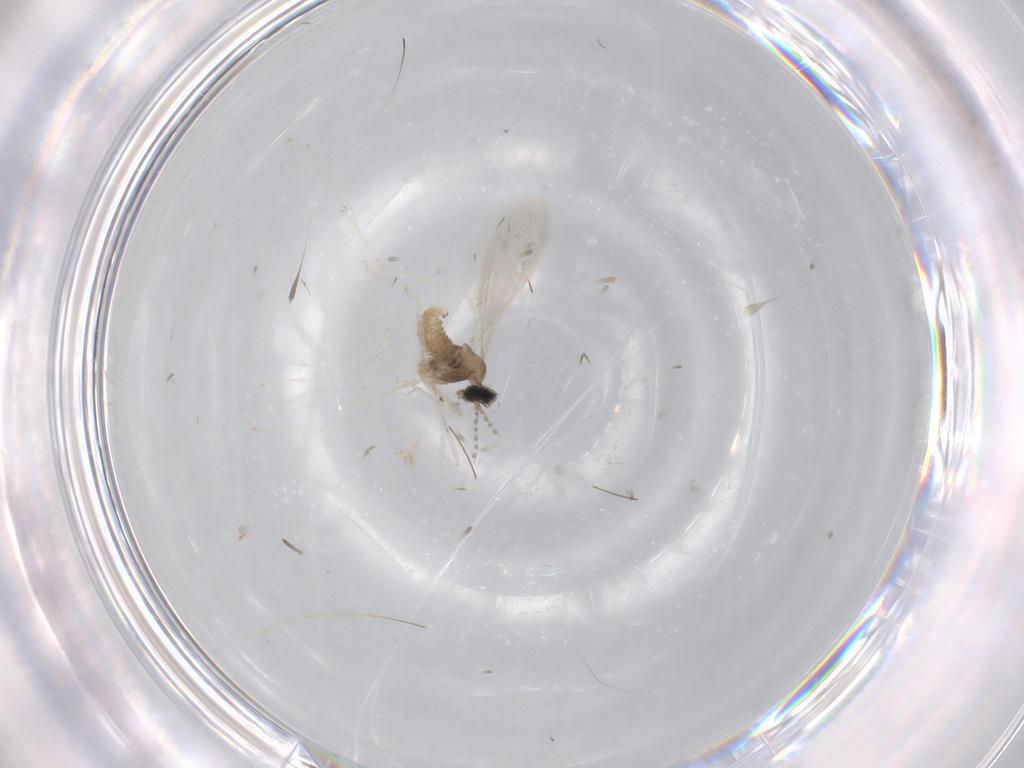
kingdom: Animalia
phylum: Arthropoda
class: Insecta
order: Diptera
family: Cecidomyiidae
